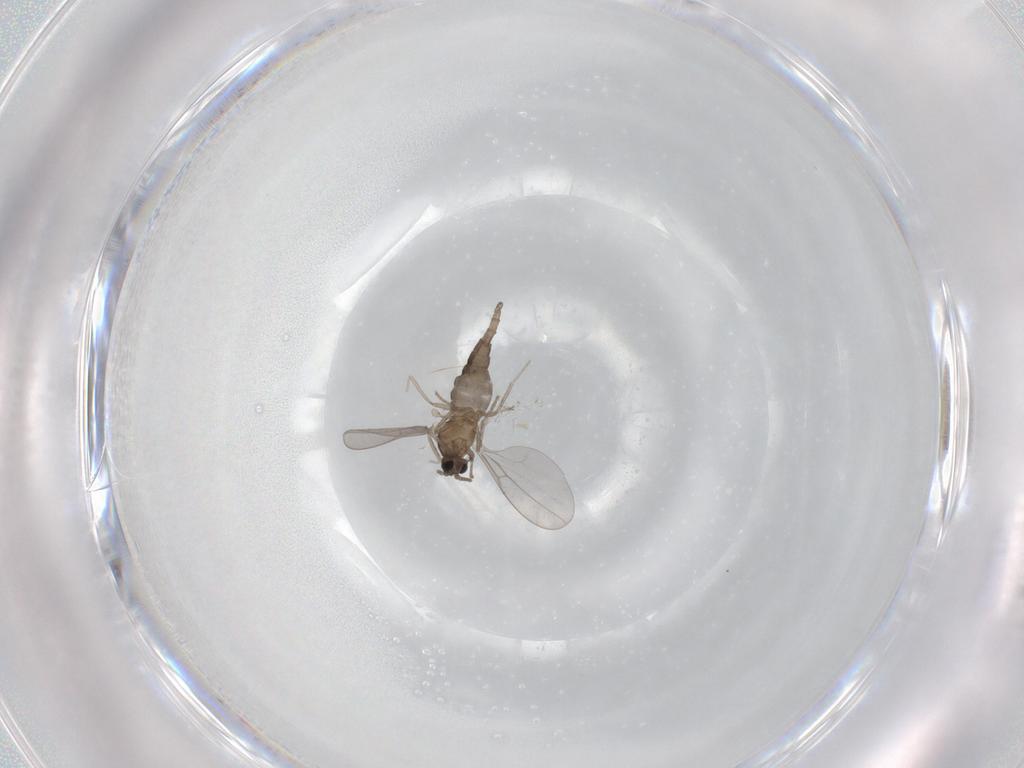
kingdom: Animalia
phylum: Arthropoda
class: Insecta
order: Diptera
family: Cecidomyiidae
